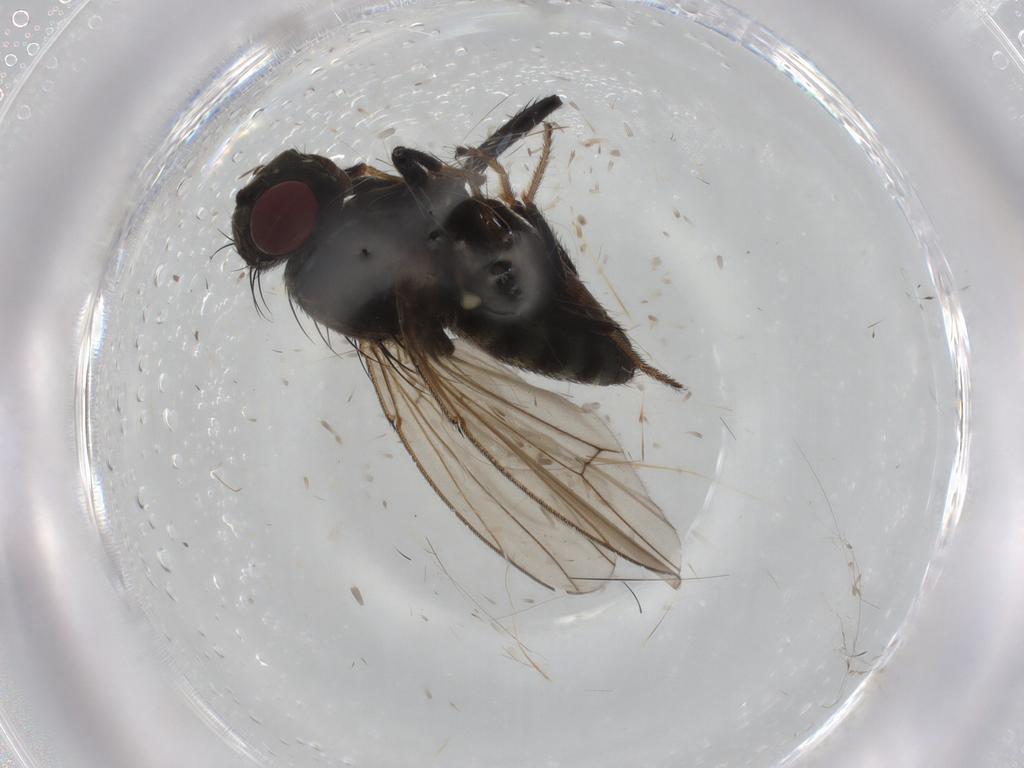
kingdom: Animalia
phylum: Arthropoda
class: Insecta
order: Diptera
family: Ephydridae
